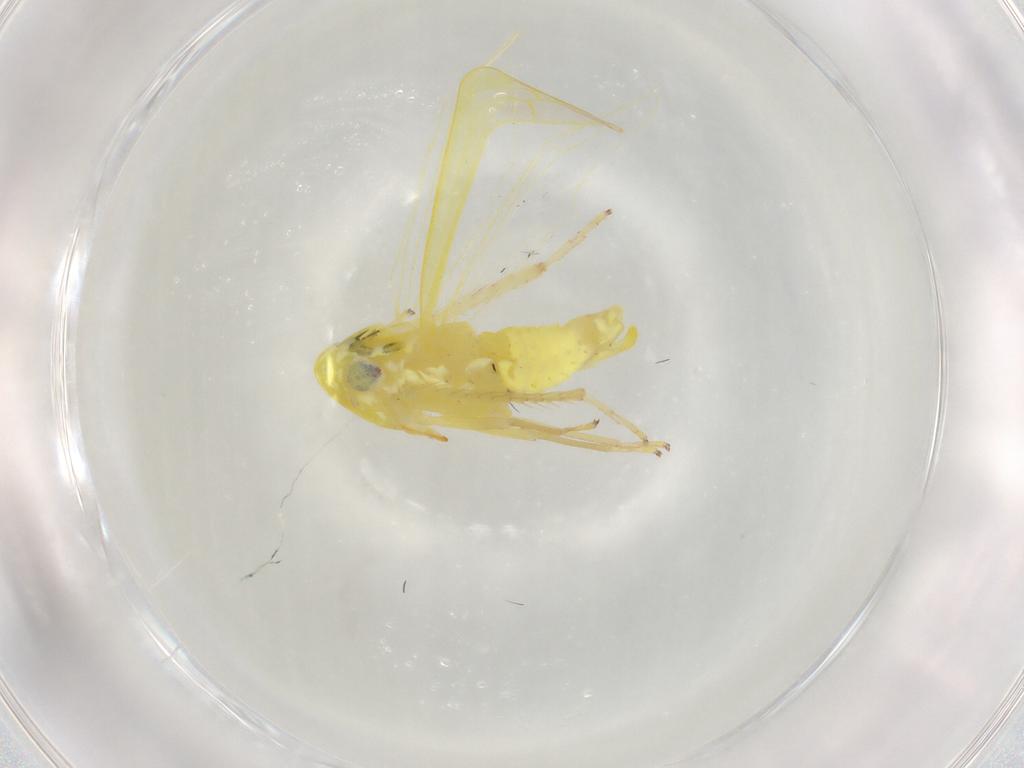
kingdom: Animalia
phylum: Arthropoda
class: Insecta
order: Hemiptera
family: Cicadellidae
